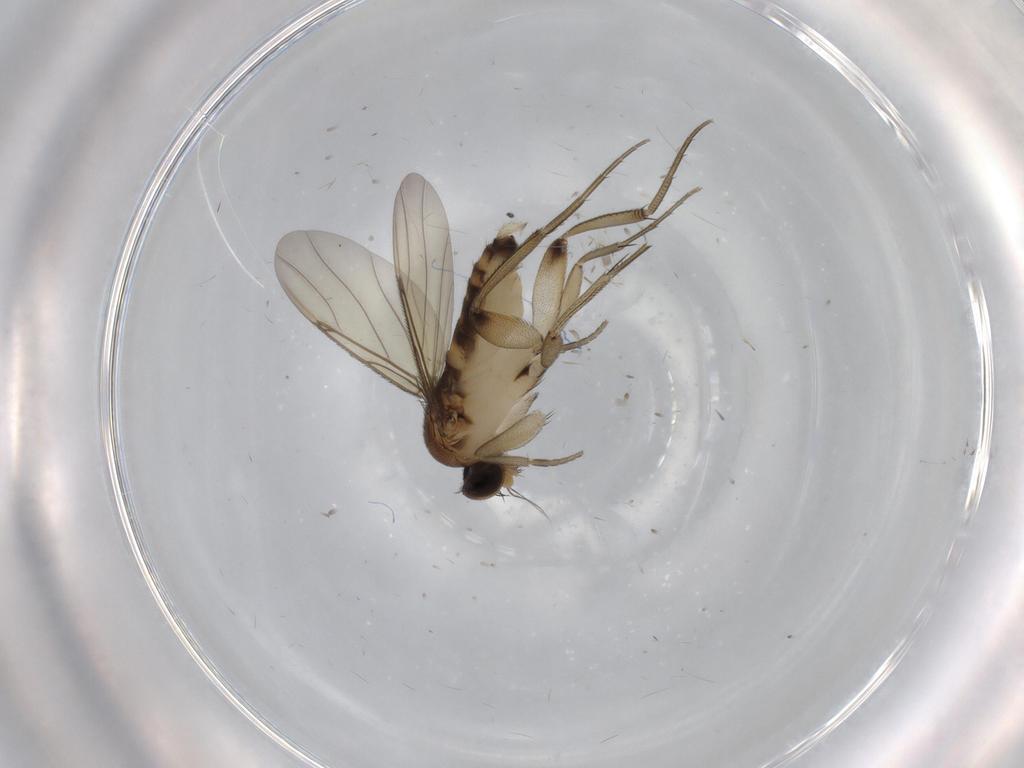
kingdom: Animalia
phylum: Arthropoda
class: Insecta
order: Diptera
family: Phoridae
